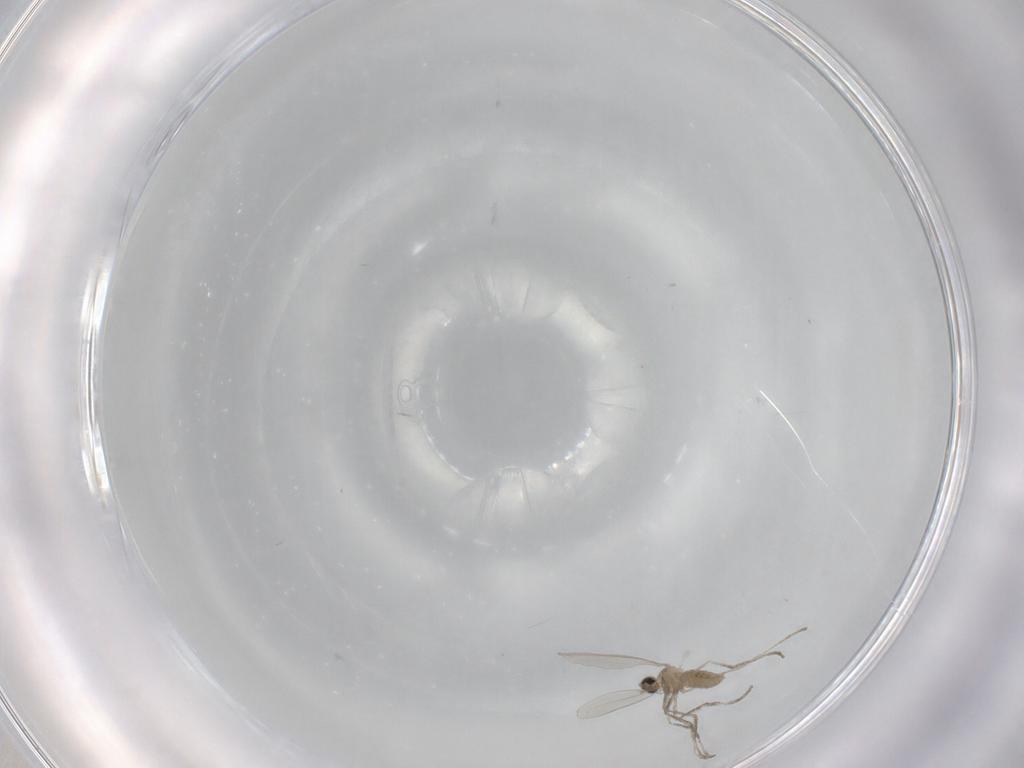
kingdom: Animalia
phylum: Arthropoda
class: Insecta
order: Diptera
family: Cecidomyiidae
